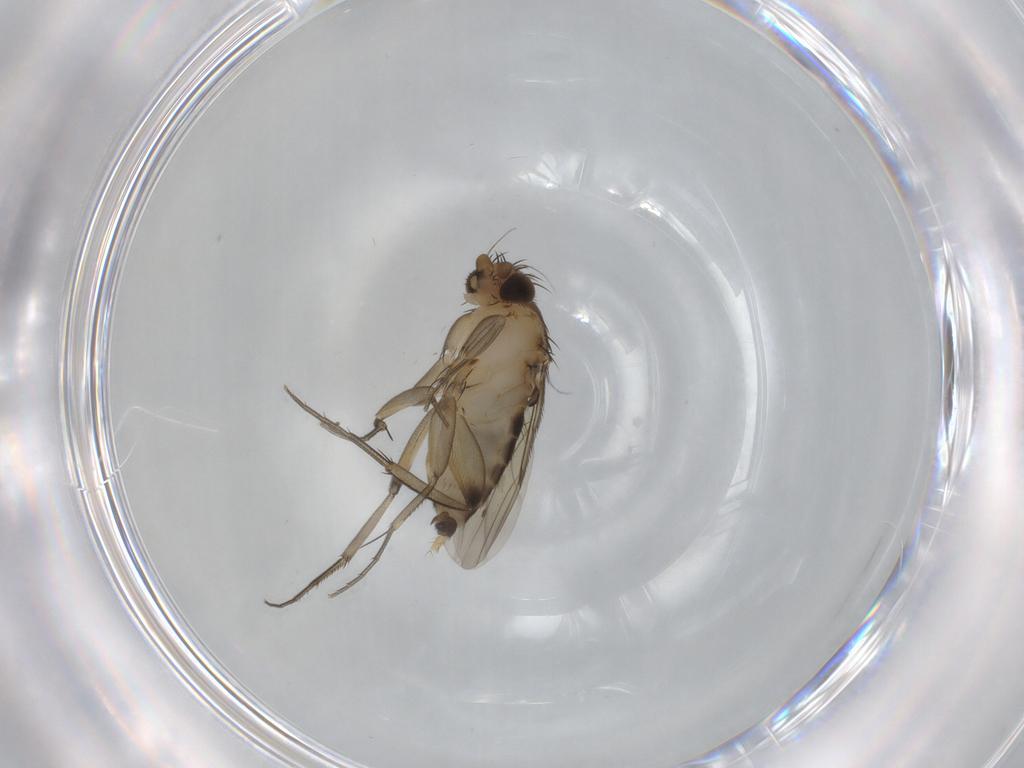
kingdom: Animalia
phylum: Arthropoda
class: Insecta
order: Diptera
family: Phoridae
